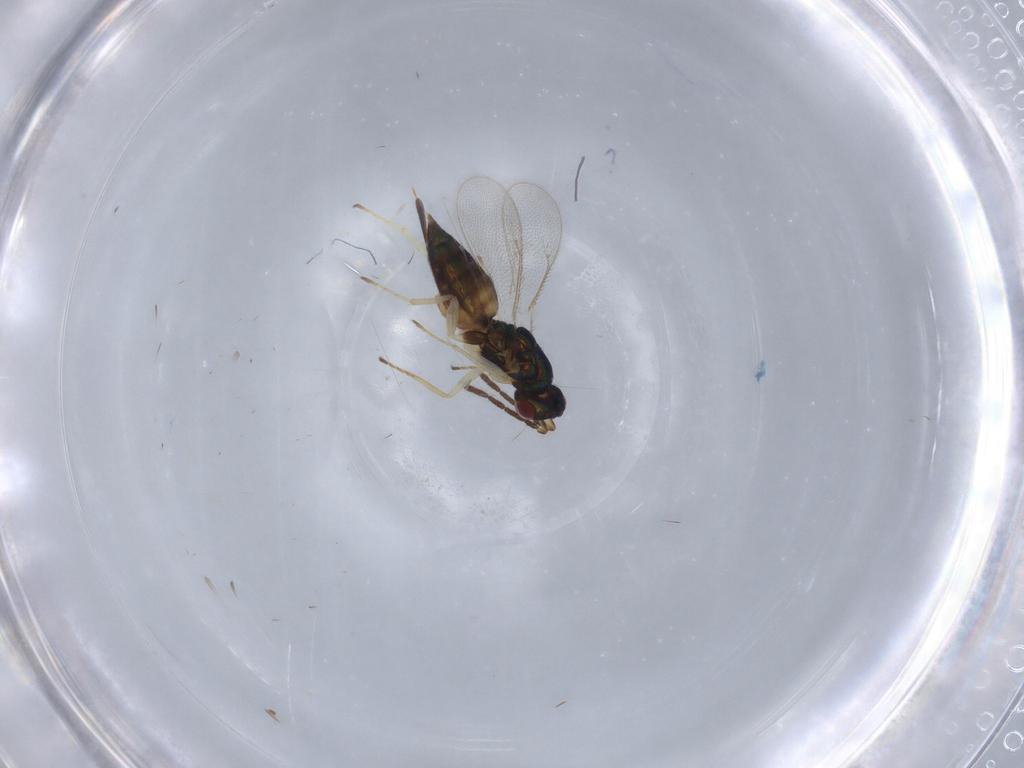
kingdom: Animalia
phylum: Arthropoda
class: Insecta
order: Hymenoptera
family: Eulophidae
